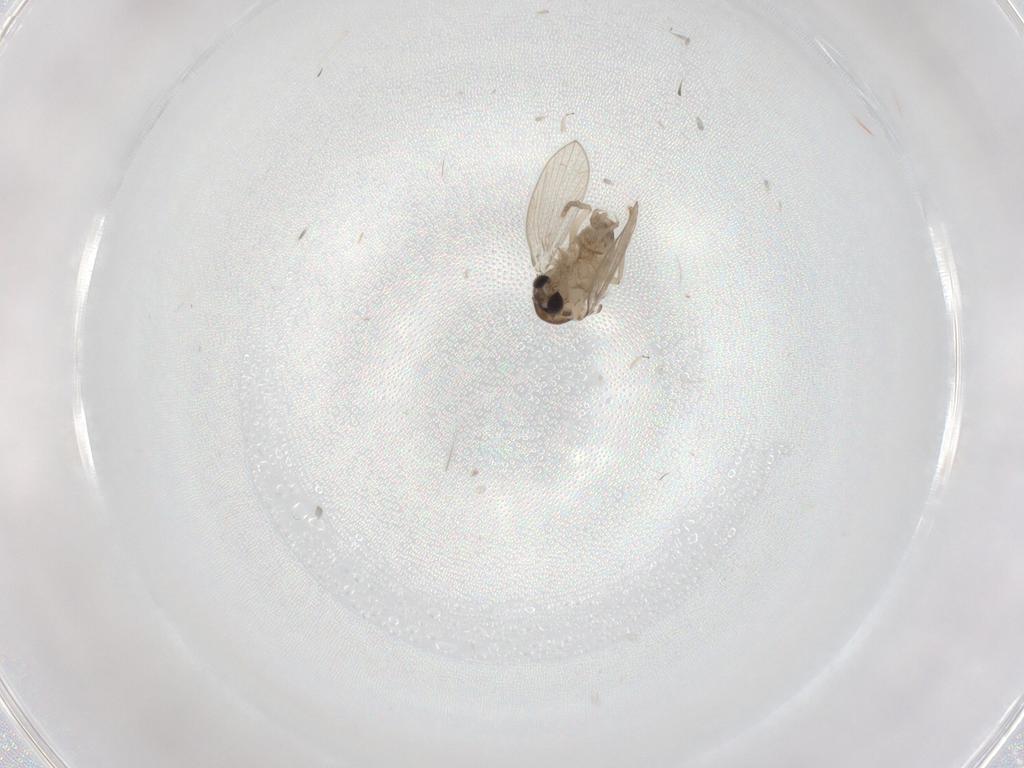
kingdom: Animalia
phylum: Arthropoda
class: Insecta
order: Diptera
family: Psychodidae
